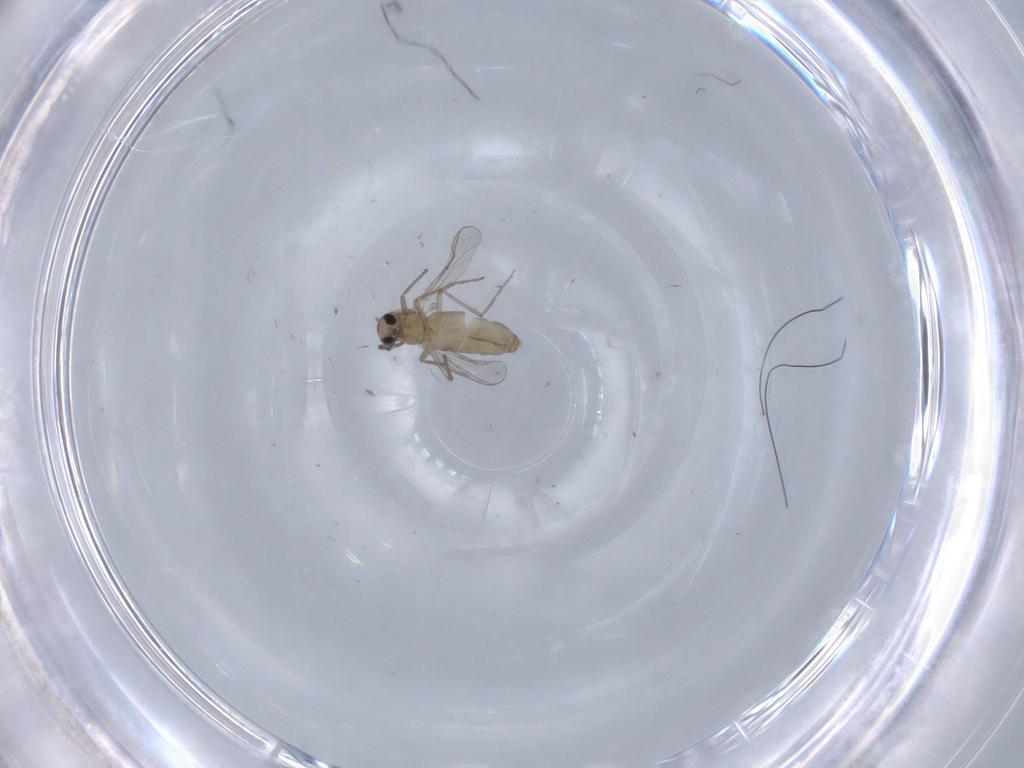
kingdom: Animalia
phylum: Arthropoda
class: Insecta
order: Diptera
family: Chironomidae
